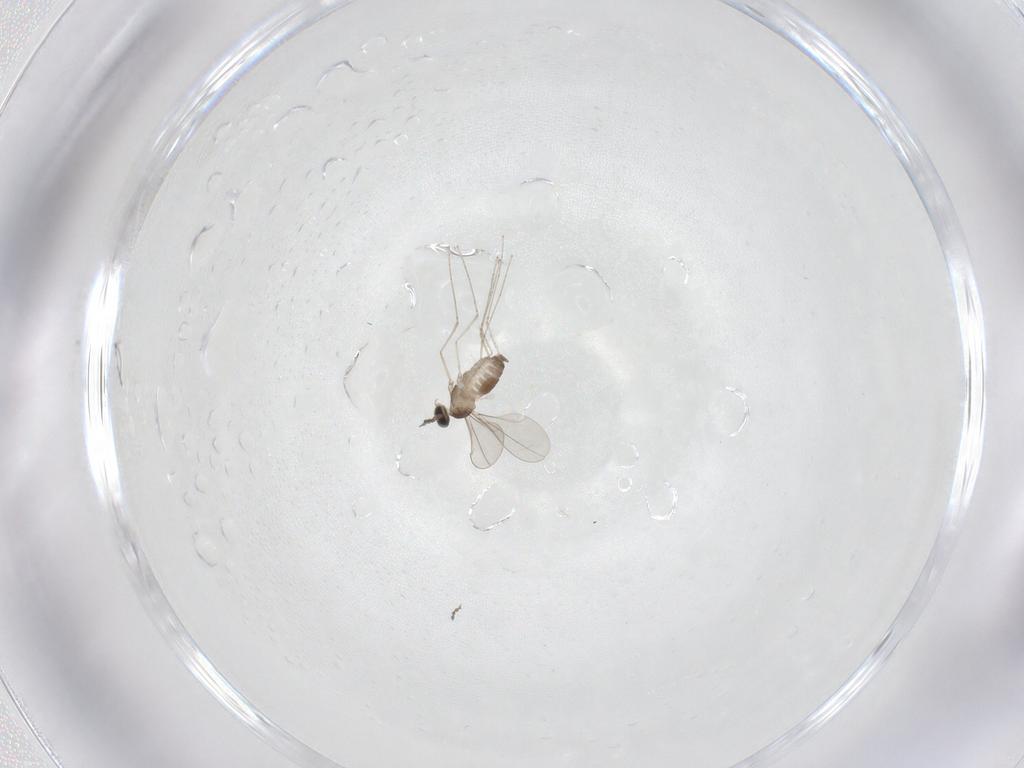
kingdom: Animalia
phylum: Arthropoda
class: Insecta
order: Diptera
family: Cecidomyiidae
